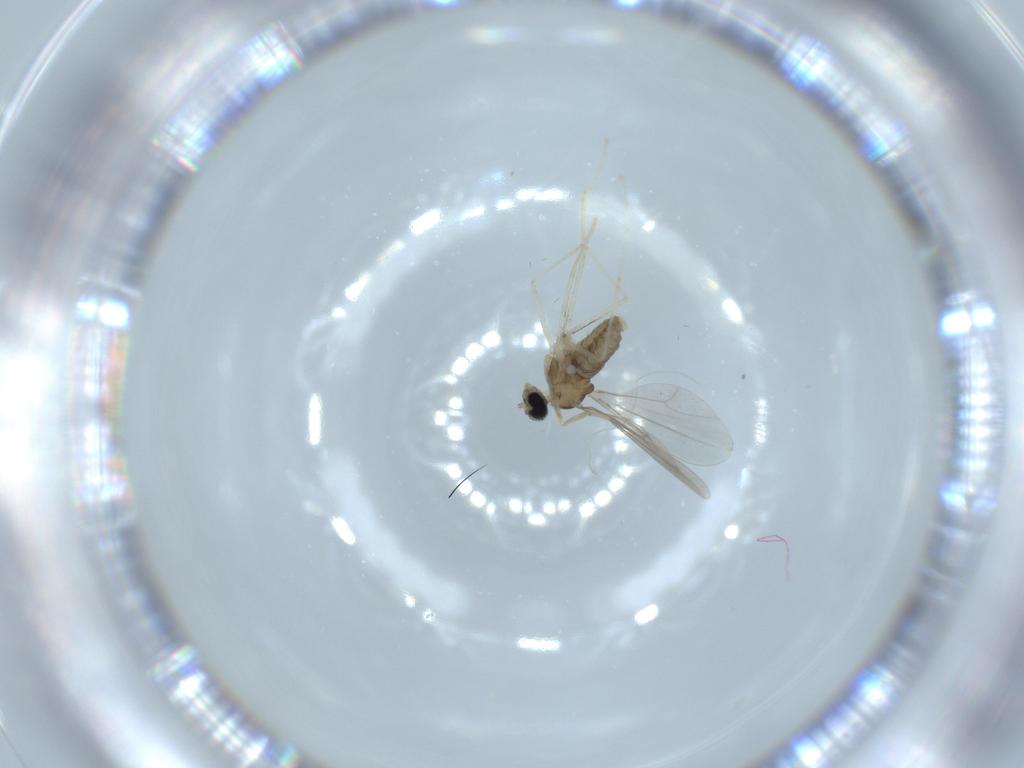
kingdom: Animalia
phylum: Arthropoda
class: Insecta
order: Diptera
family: Cecidomyiidae
